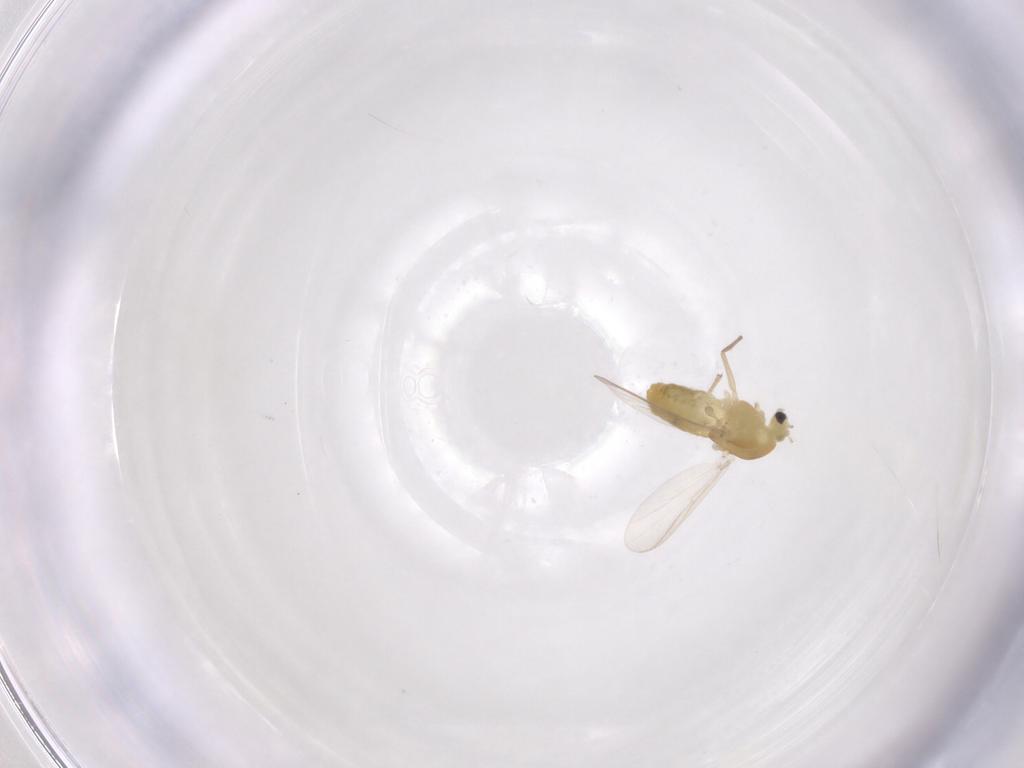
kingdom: Animalia
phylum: Arthropoda
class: Insecta
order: Diptera
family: Chironomidae
